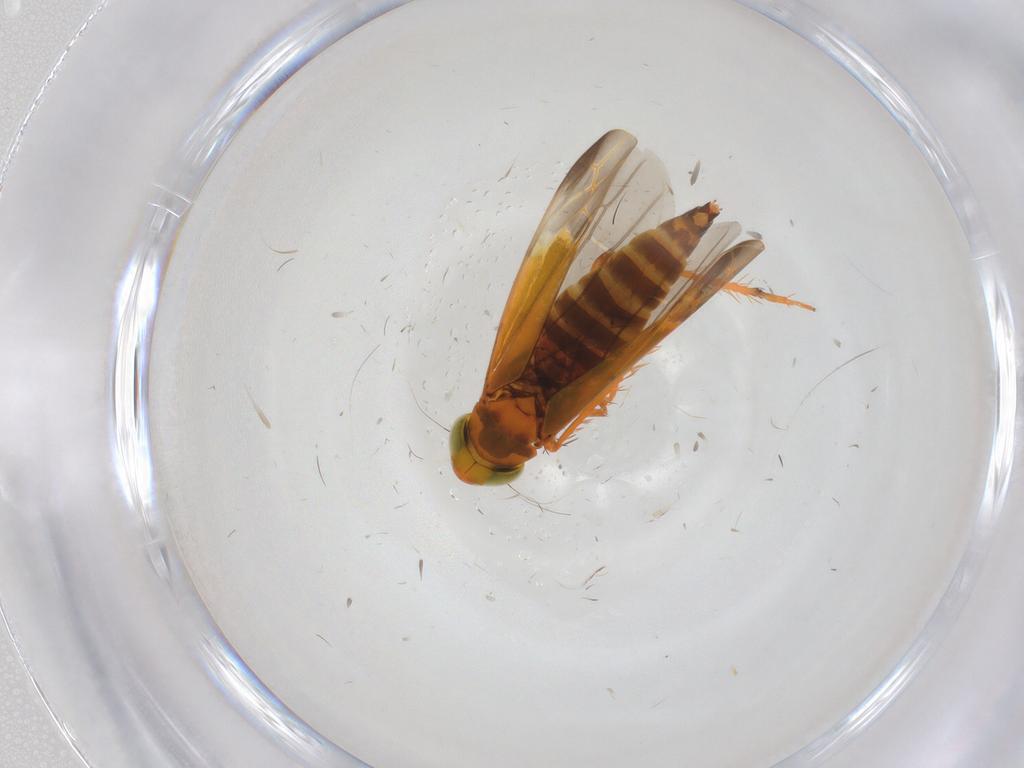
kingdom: Animalia
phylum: Arthropoda
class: Insecta
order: Hemiptera
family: Cicadellidae
